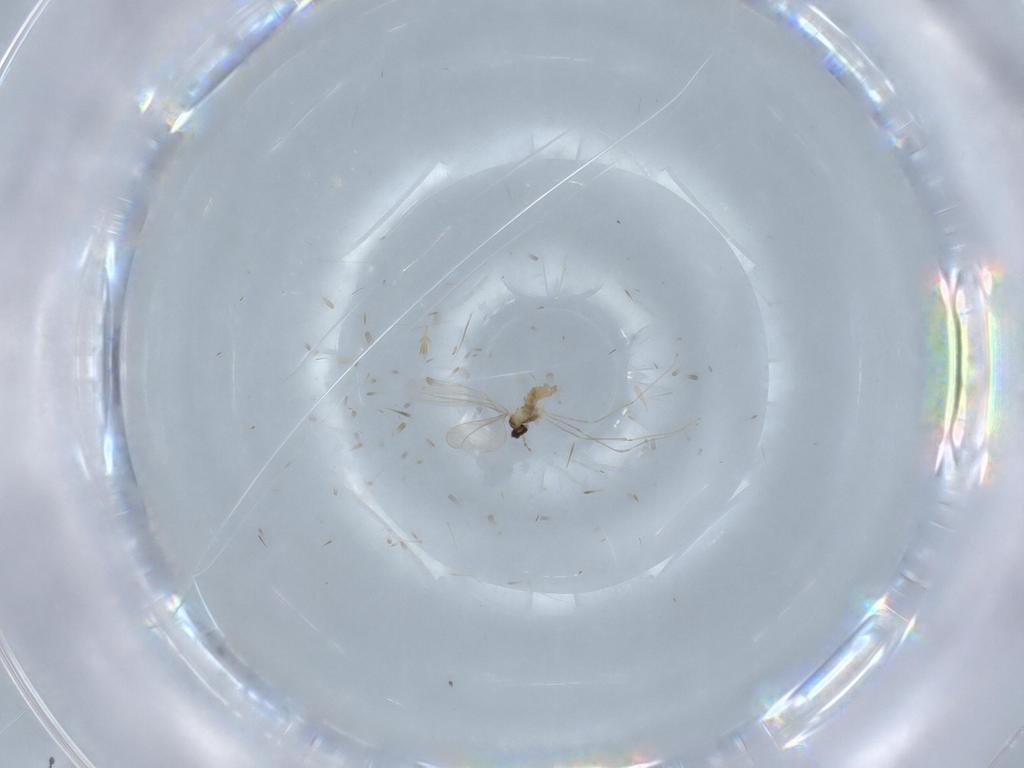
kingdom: Animalia
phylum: Arthropoda
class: Insecta
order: Diptera
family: Cecidomyiidae
